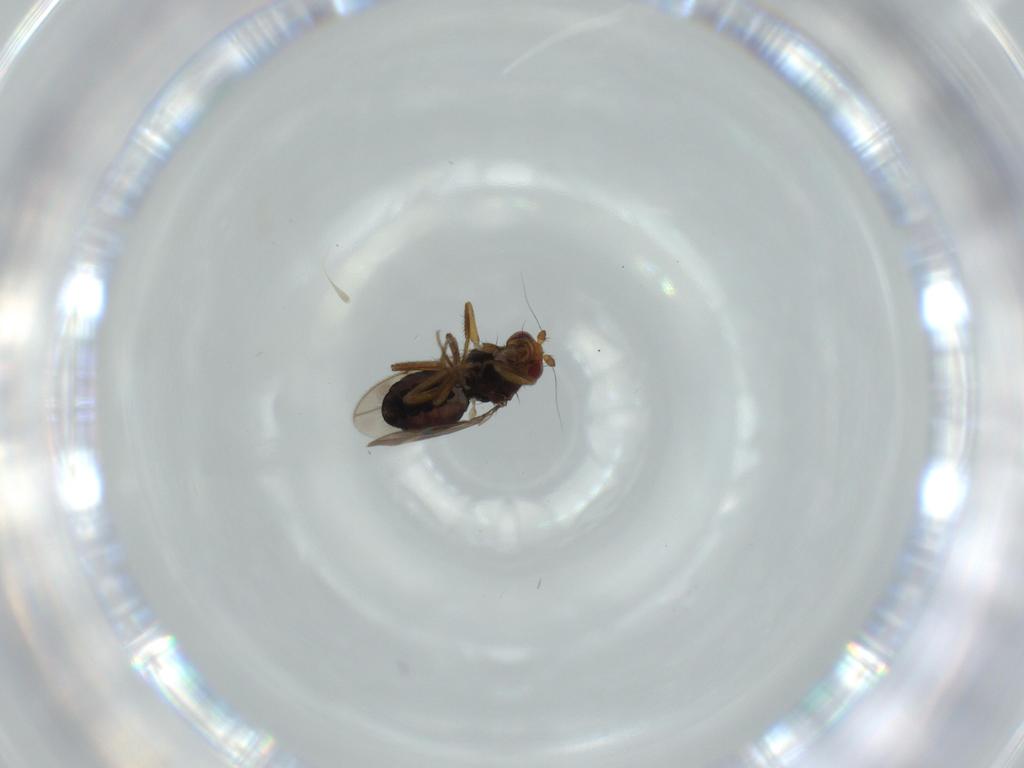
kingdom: Animalia
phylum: Arthropoda
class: Insecta
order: Diptera
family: Sphaeroceridae
